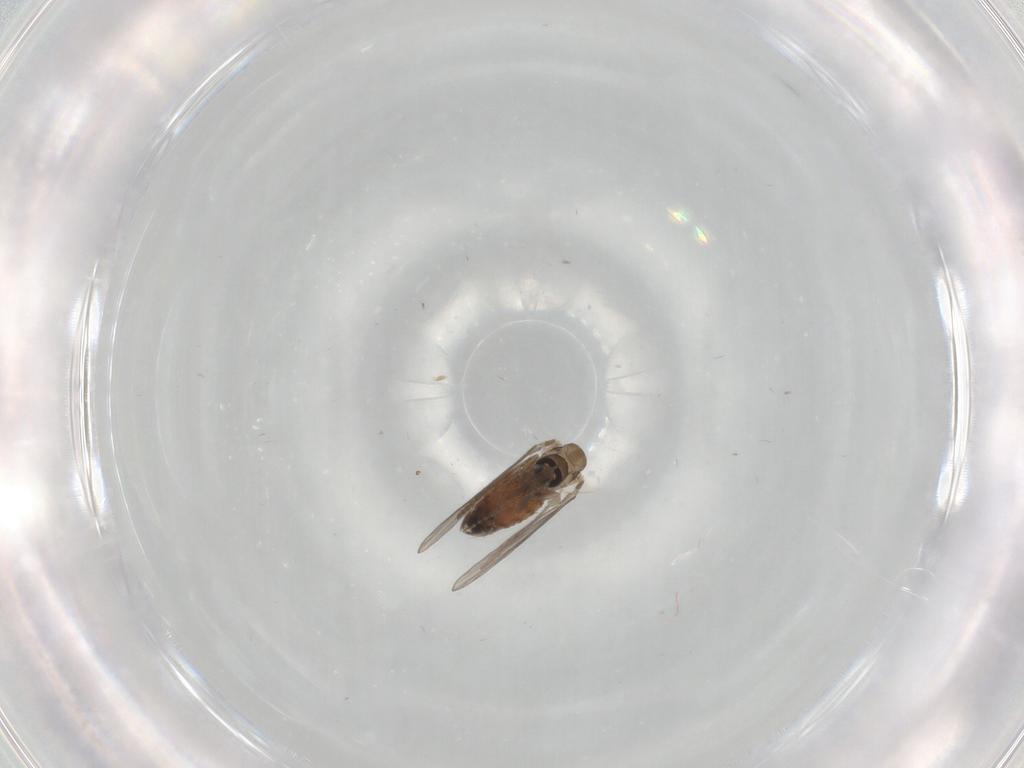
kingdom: Animalia
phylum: Arthropoda
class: Insecta
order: Diptera
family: Psychodidae
